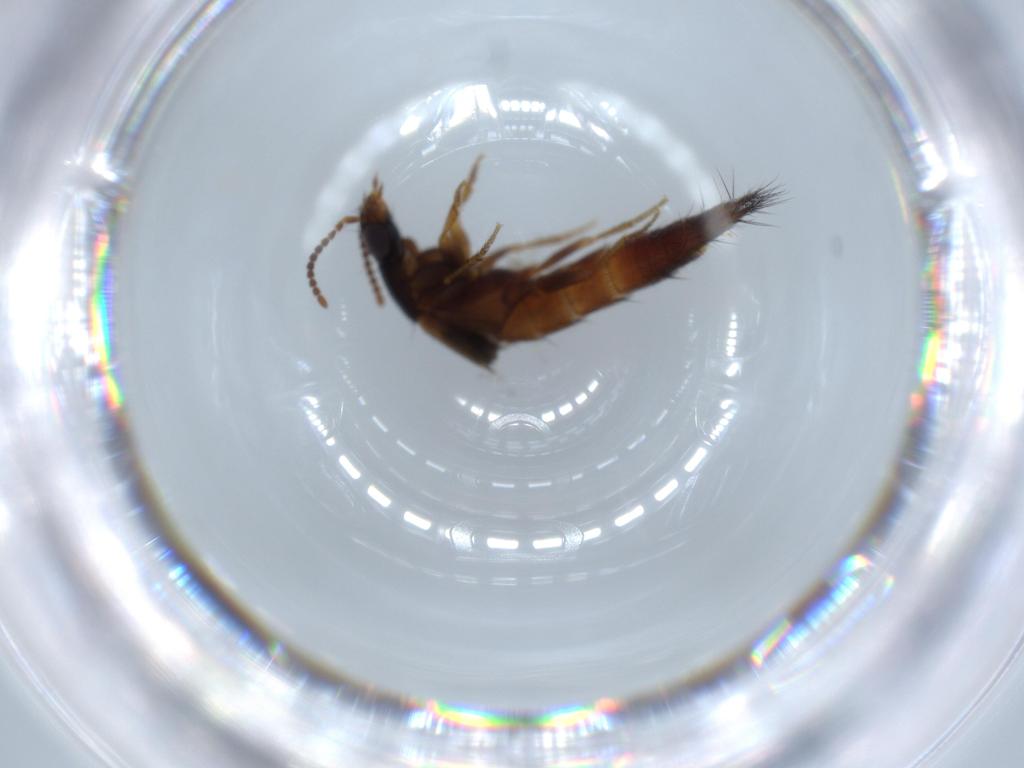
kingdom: Animalia
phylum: Arthropoda
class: Insecta
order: Coleoptera
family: Staphylinidae
